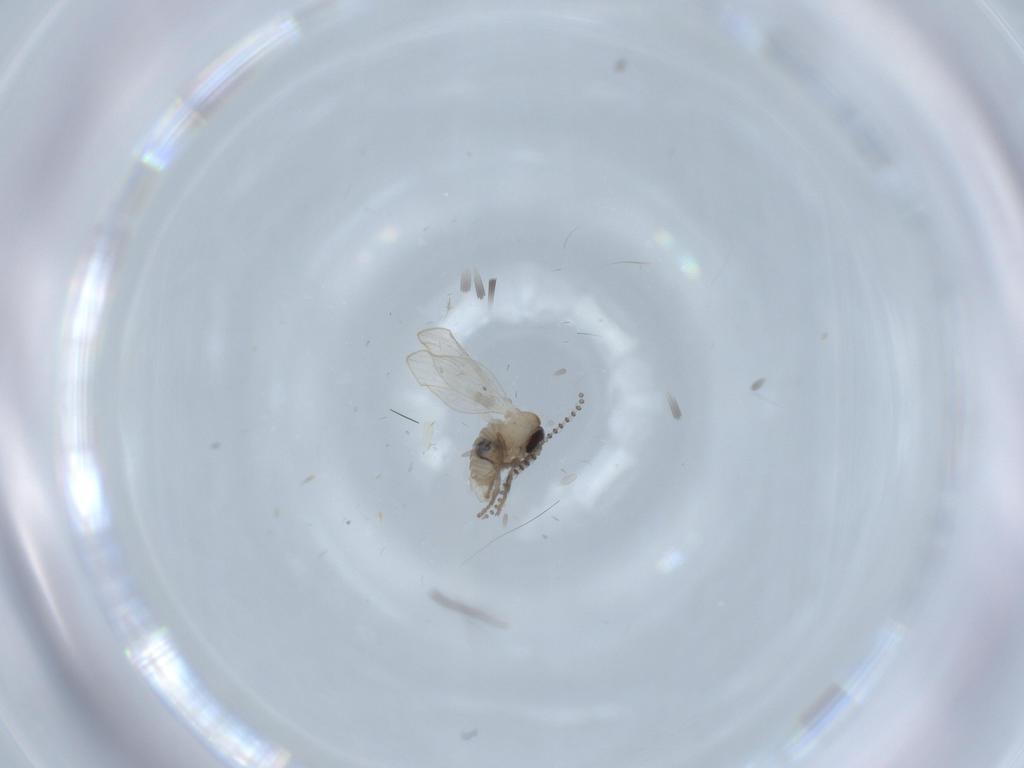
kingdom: Animalia
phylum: Arthropoda
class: Insecta
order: Diptera
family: Psychodidae
